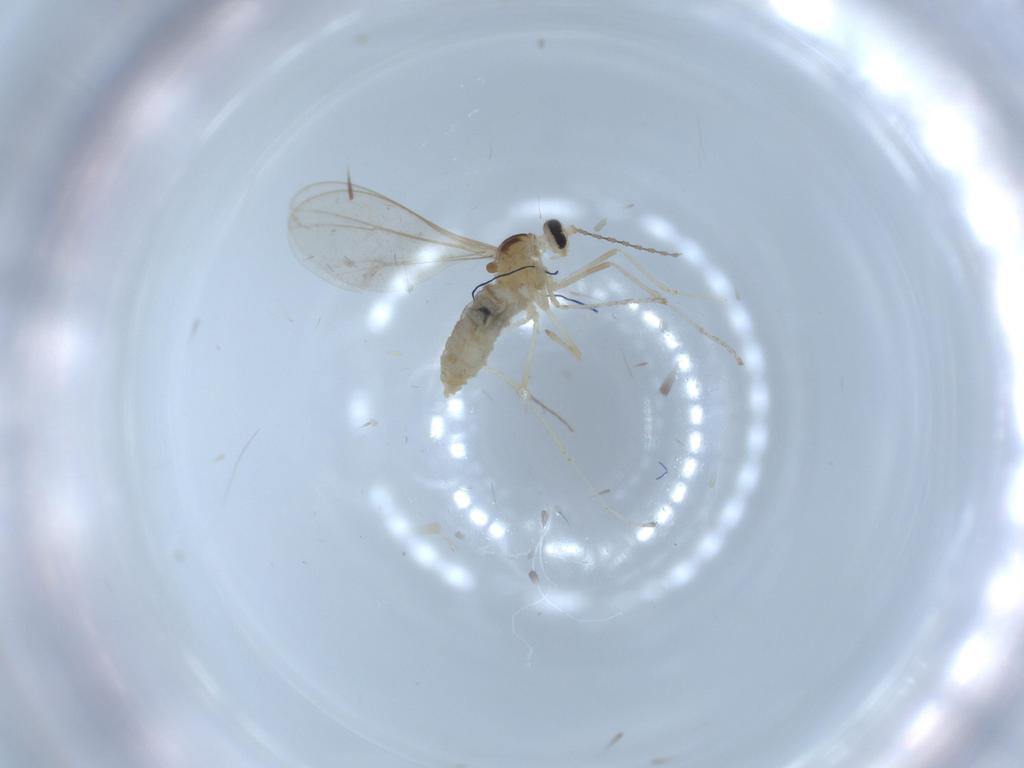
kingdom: Animalia
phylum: Arthropoda
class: Insecta
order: Diptera
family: Cecidomyiidae
